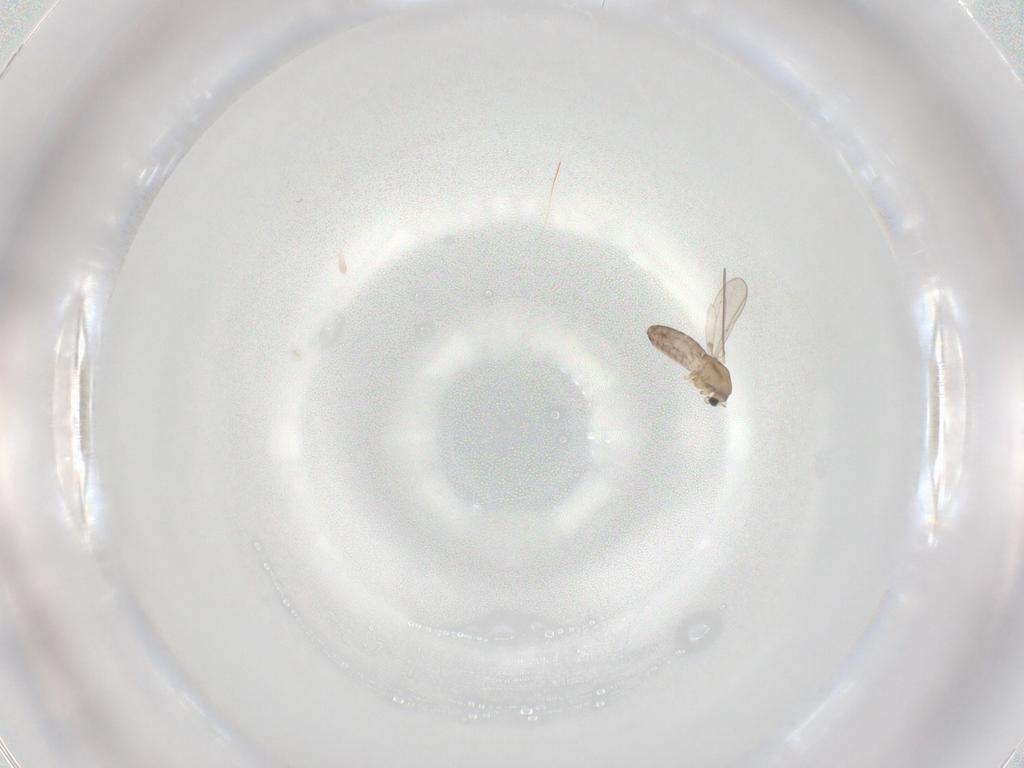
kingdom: Animalia
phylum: Arthropoda
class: Insecta
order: Diptera
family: Chironomidae
